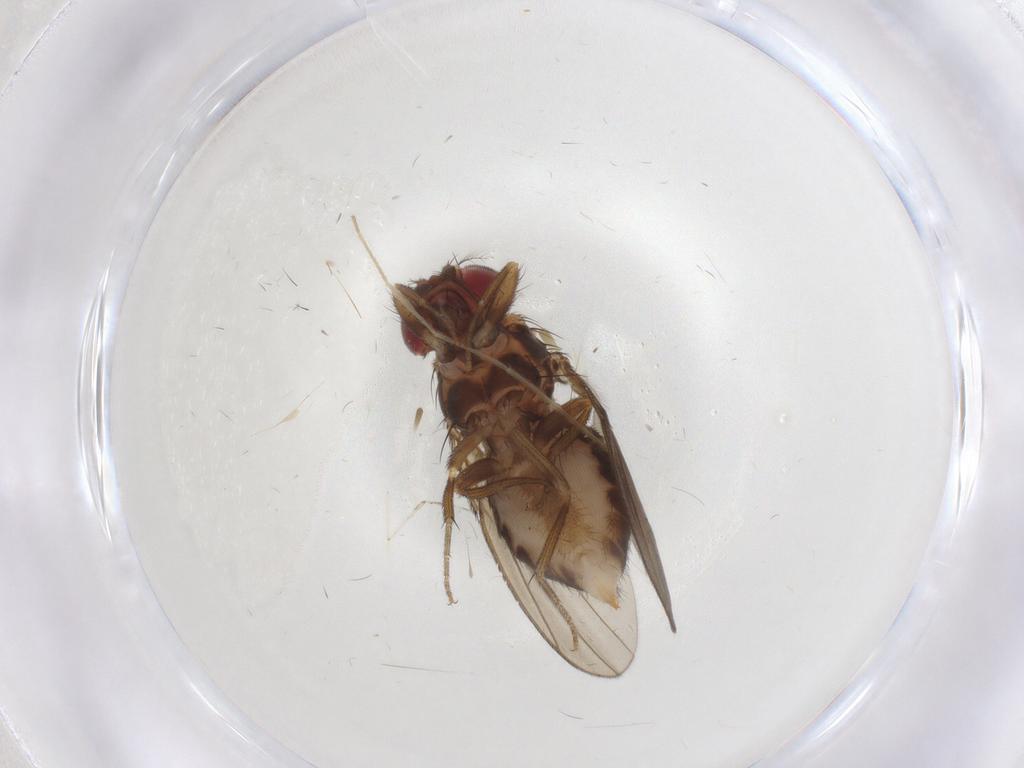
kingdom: Animalia
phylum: Arthropoda
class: Insecta
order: Diptera
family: Drosophilidae
